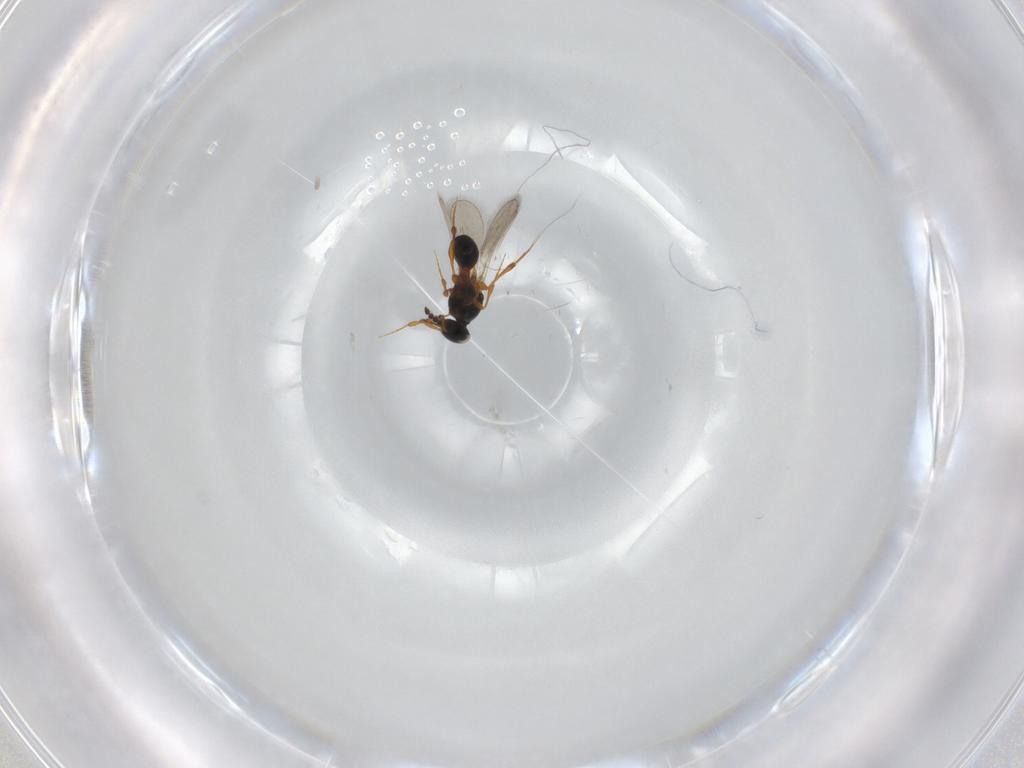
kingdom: Animalia
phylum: Arthropoda
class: Insecta
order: Hymenoptera
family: Platygastridae
